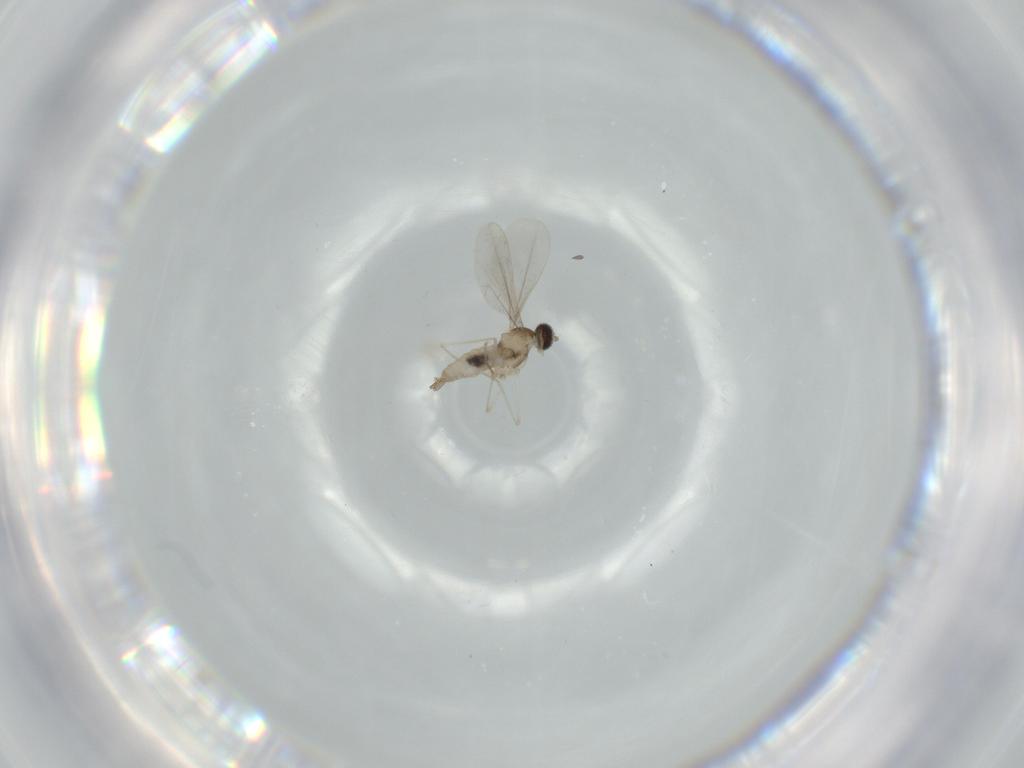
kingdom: Animalia
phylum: Arthropoda
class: Insecta
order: Diptera
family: Cecidomyiidae
